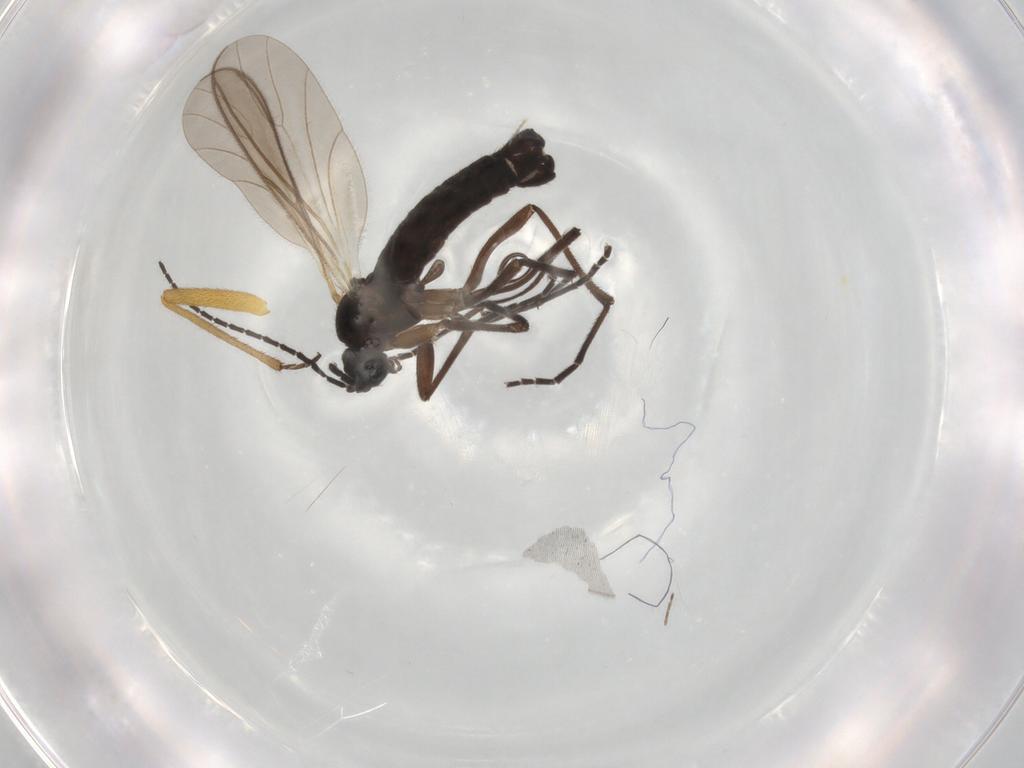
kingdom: Animalia
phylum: Arthropoda
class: Insecta
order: Diptera
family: Sciaridae
